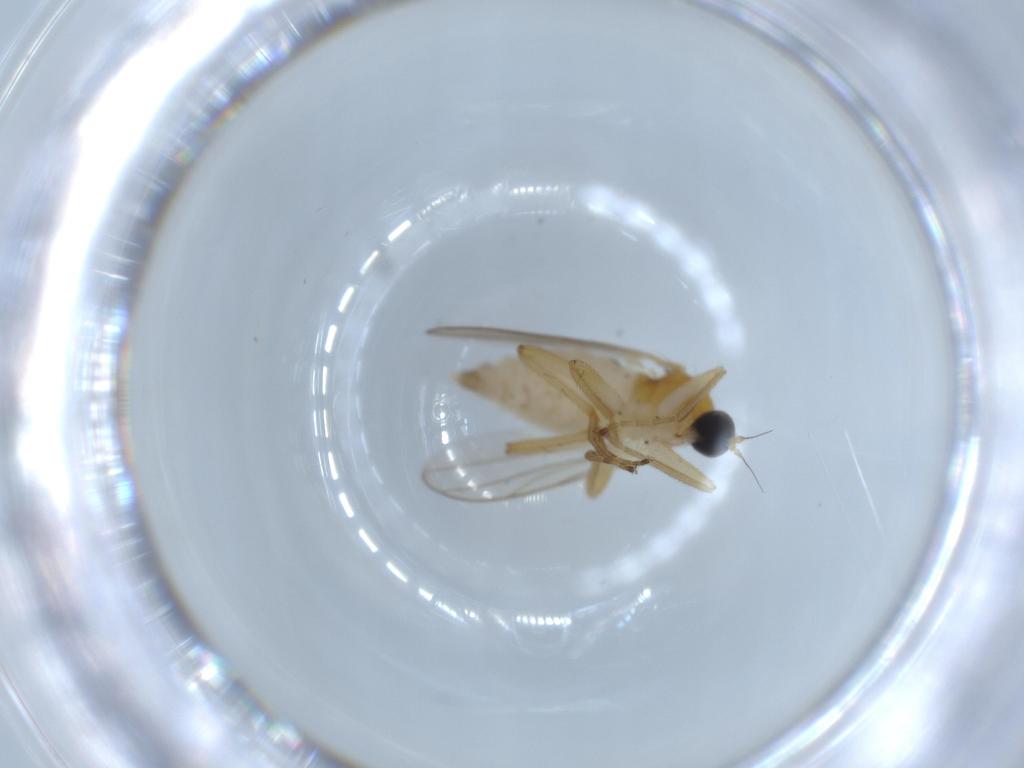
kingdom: Animalia
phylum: Arthropoda
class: Insecta
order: Diptera
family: Hybotidae
